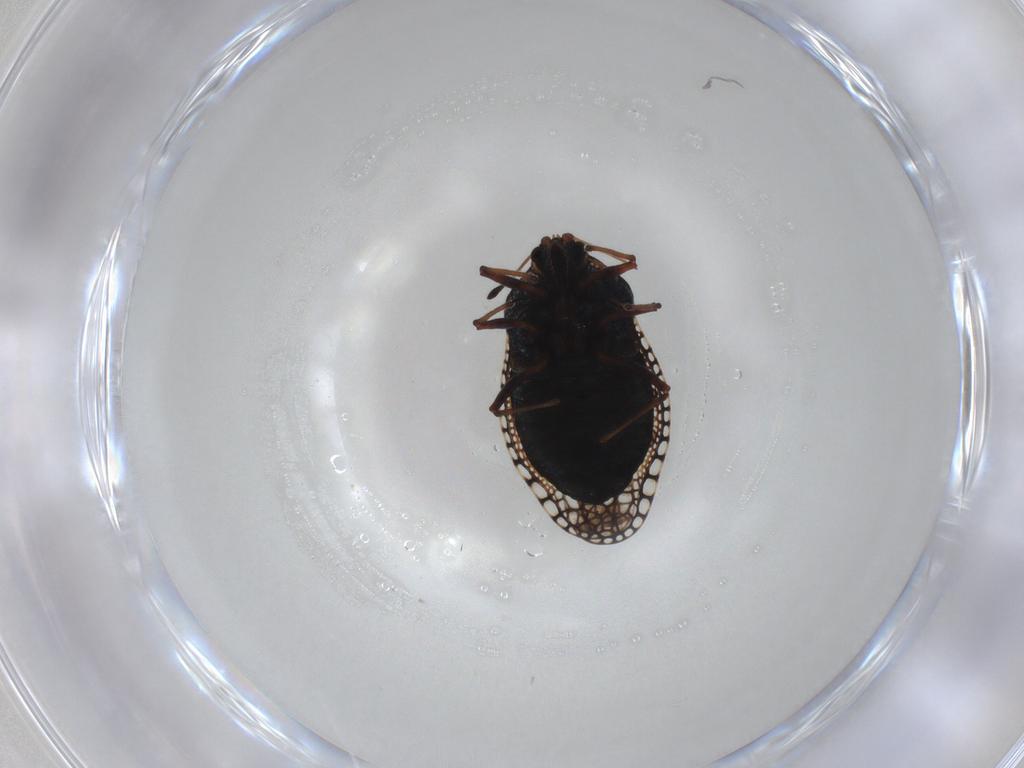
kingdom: Animalia
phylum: Arthropoda
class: Insecta
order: Hemiptera
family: Tingidae
